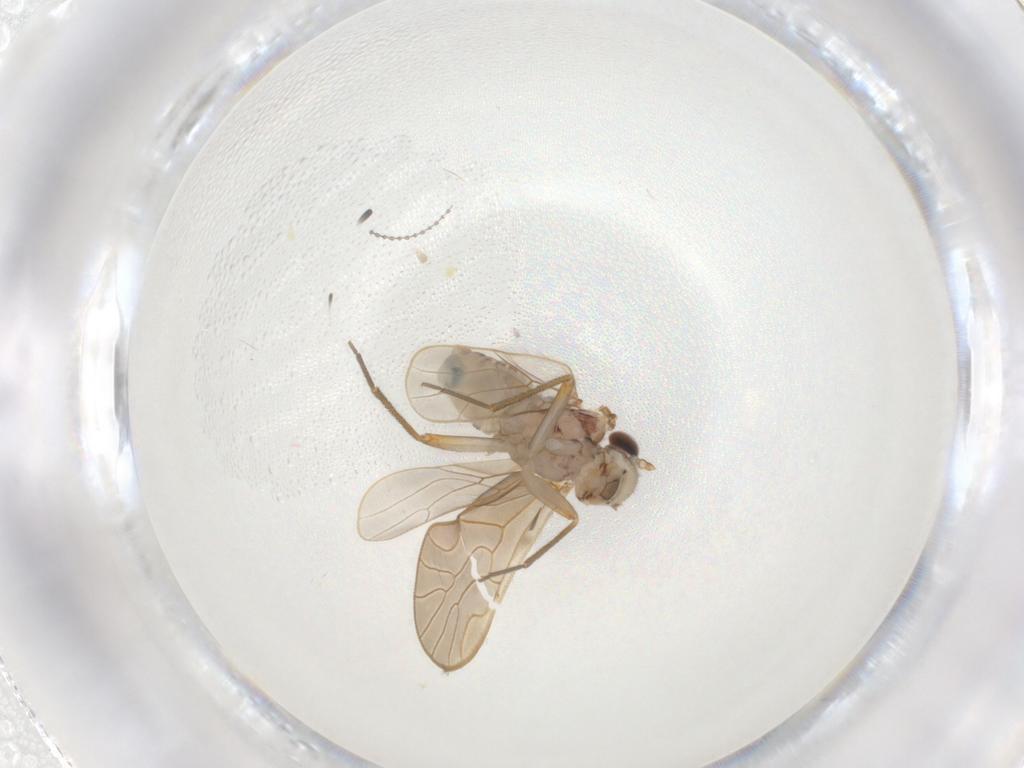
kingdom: Animalia
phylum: Arthropoda
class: Insecta
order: Psocodea
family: Mesopsocidae
